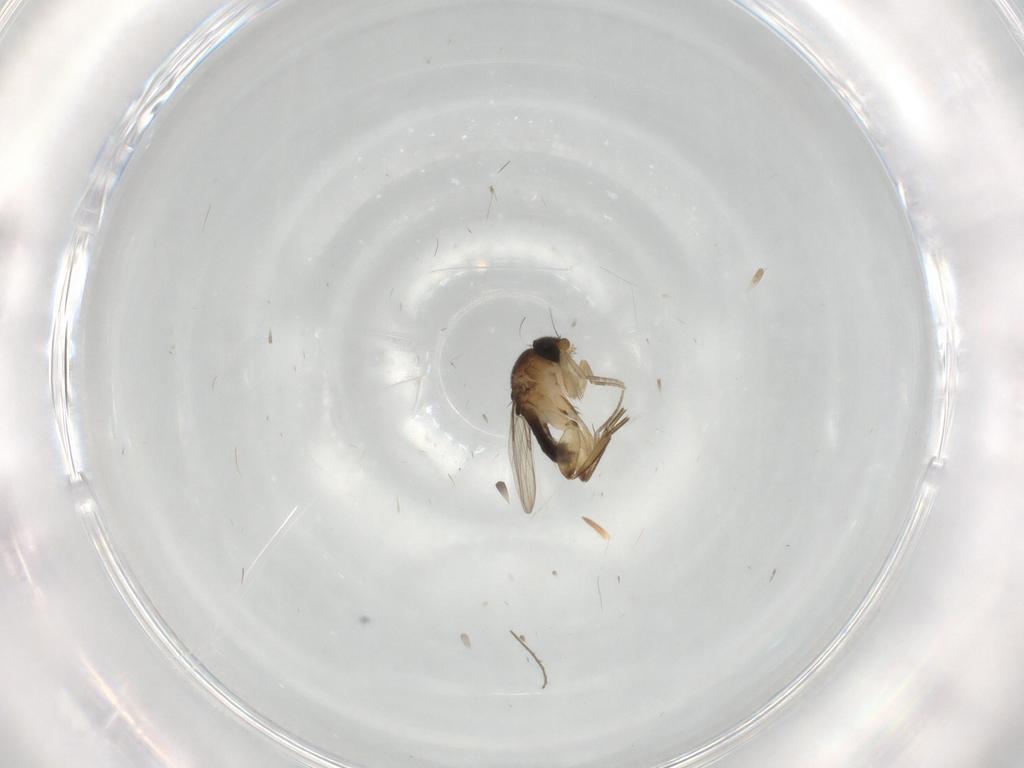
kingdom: Animalia
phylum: Arthropoda
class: Insecta
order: Diptera
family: Phoridae
